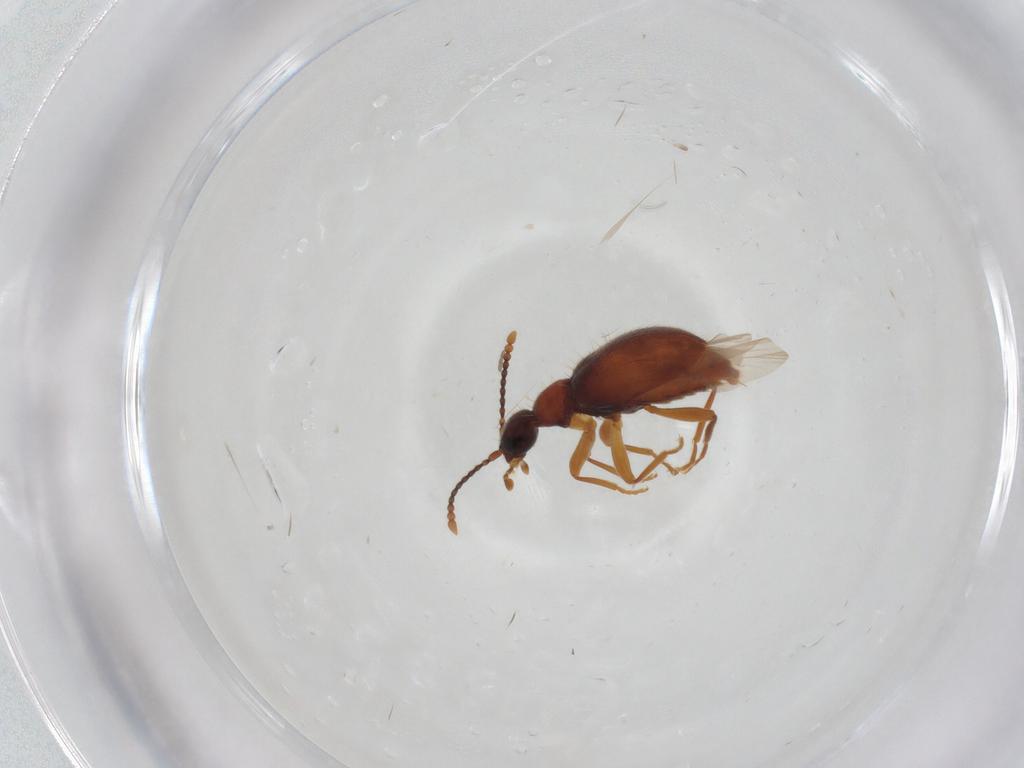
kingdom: Animalia
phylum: Arthropoda
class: Insecta
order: Coleoptera
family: Anthicidae
